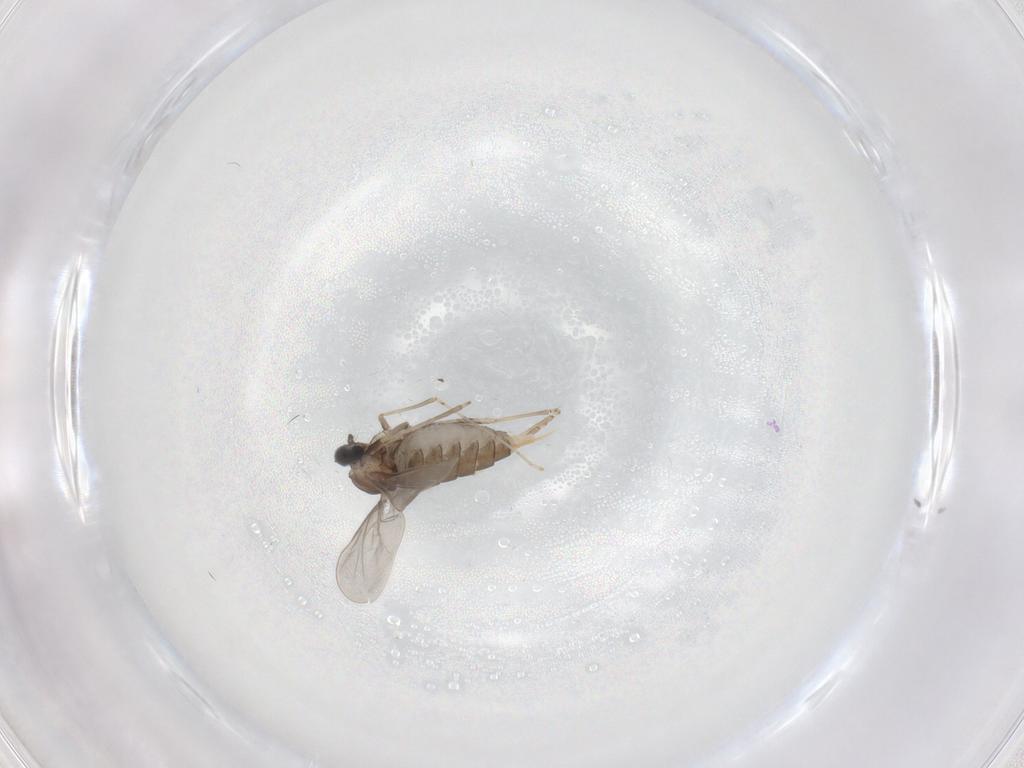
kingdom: Animalia
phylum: Arthropoda
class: Insecta
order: Diptera
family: Cecidomyiidae
